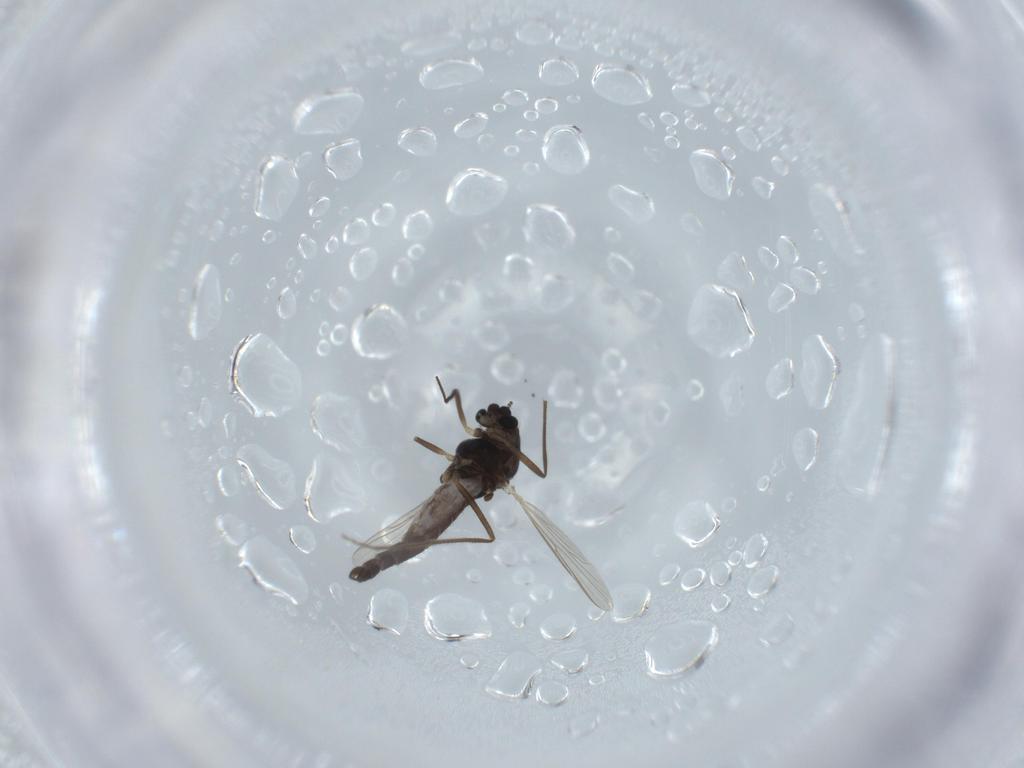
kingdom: Animalia
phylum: Arthropoda
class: Insecta
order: Diptera
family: Chironomidae
